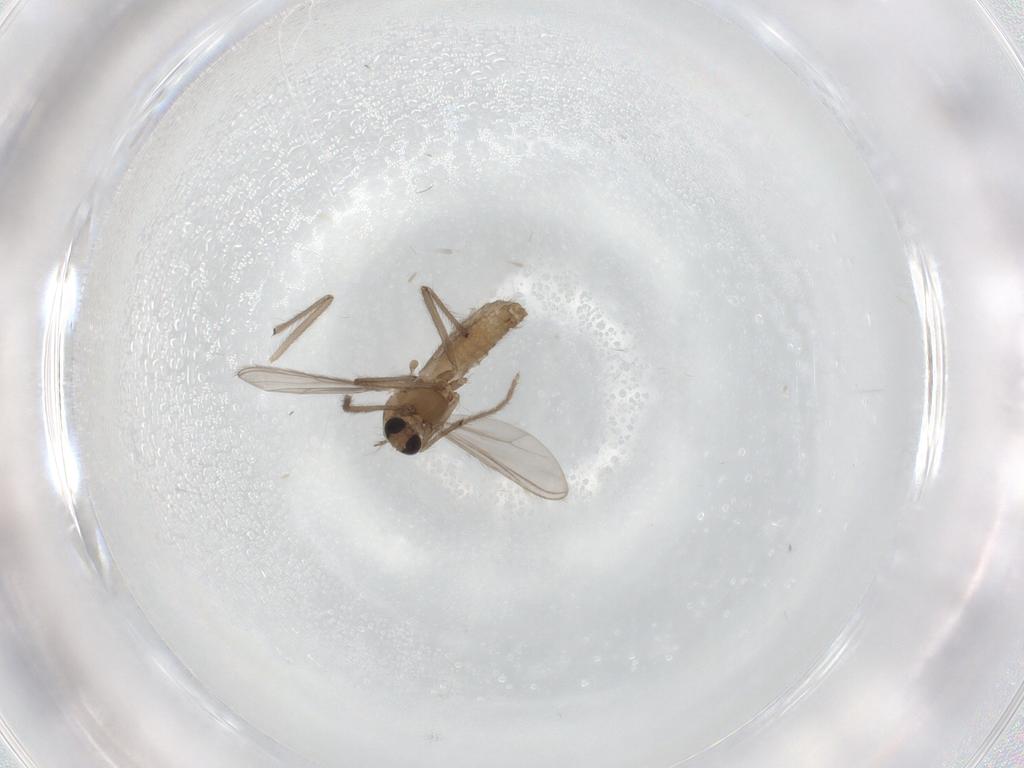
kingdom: Animalia
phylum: Arthropoda
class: Insecta
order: Diptera
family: Chironomidae
